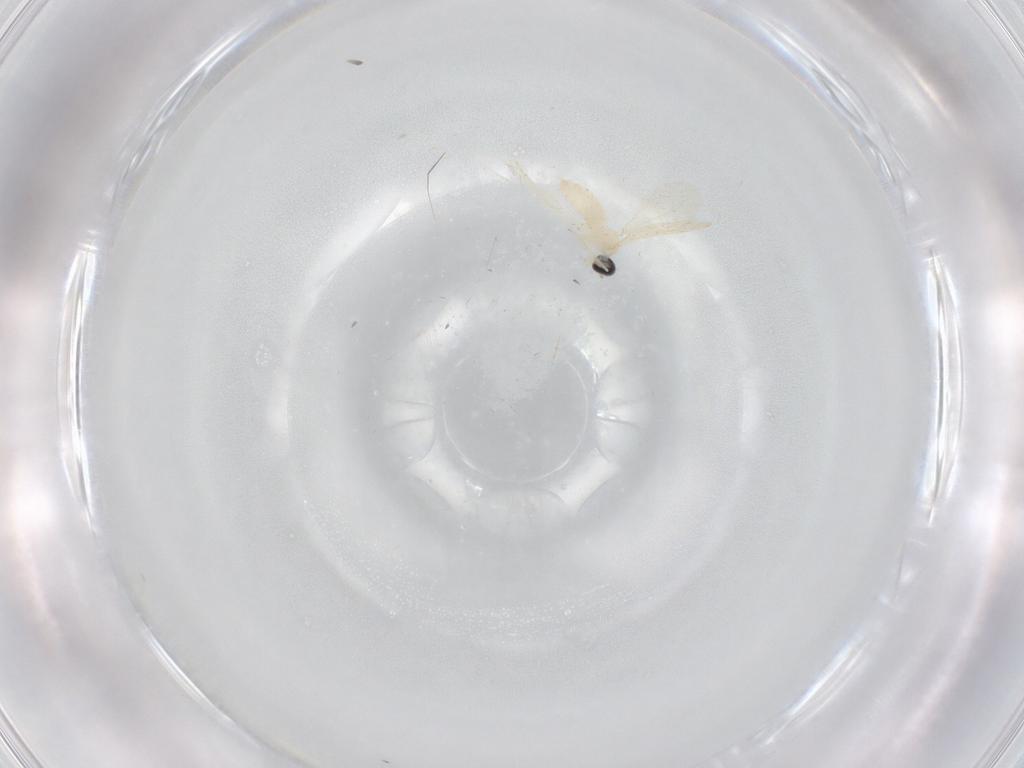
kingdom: Animalia
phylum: Arthropoda
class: Insecta
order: Diptera
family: Cecidomyiidae
